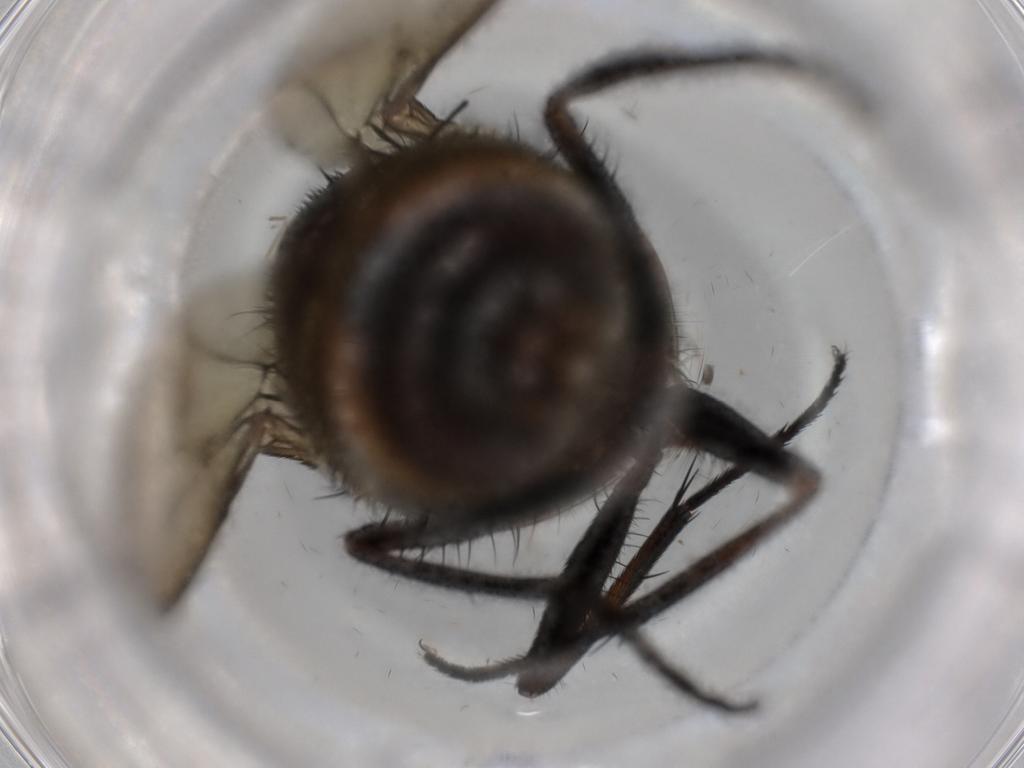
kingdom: Animalia
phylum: Arthropoda
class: Insecta
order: Diptera
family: Muscidae
